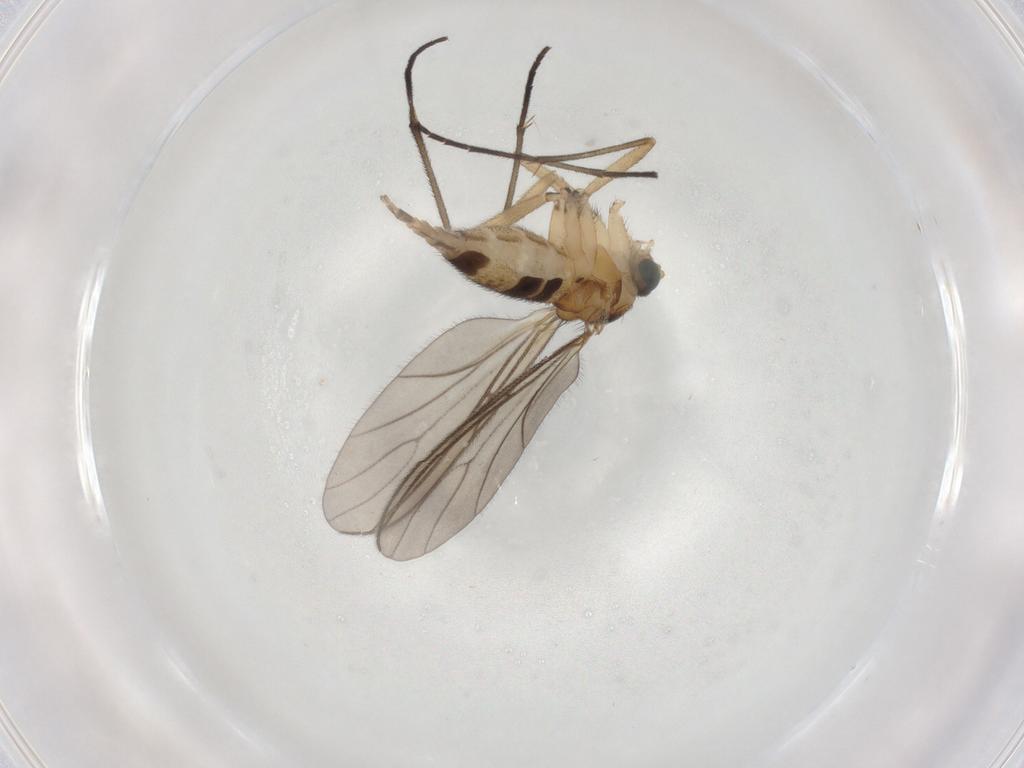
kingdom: Animalia
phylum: Arthropoda
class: Insecta
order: Diptera
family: Sciaridae
